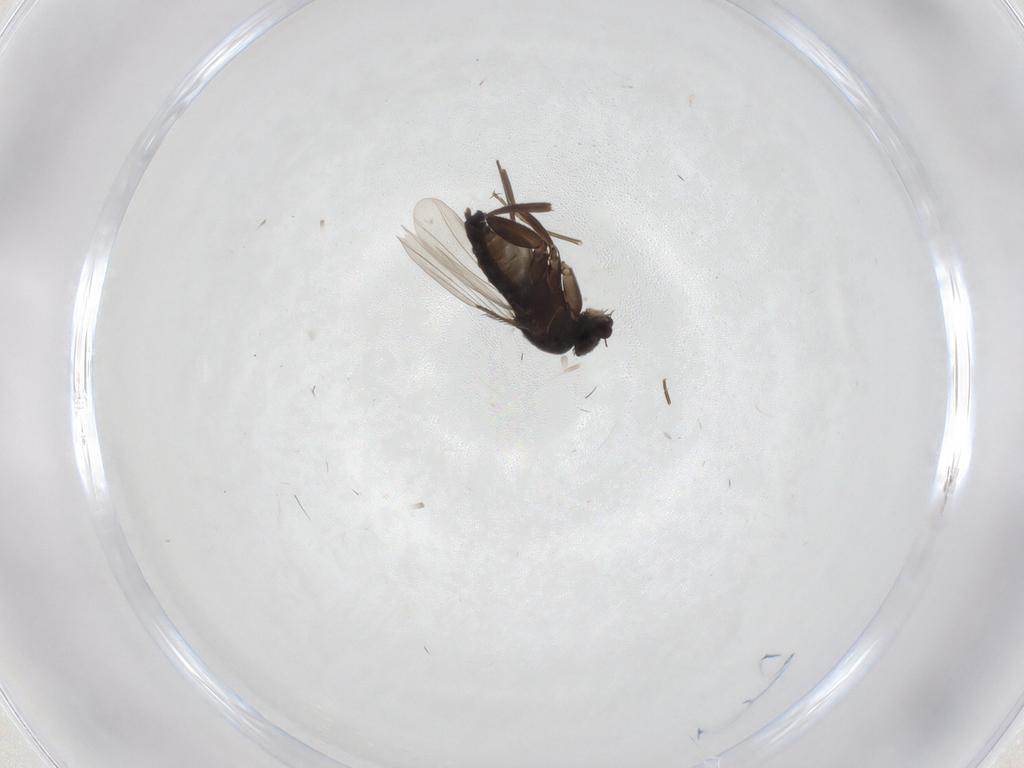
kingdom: Animalia
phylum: Arthropoda
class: Insecta
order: Diptera
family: Phoridae
